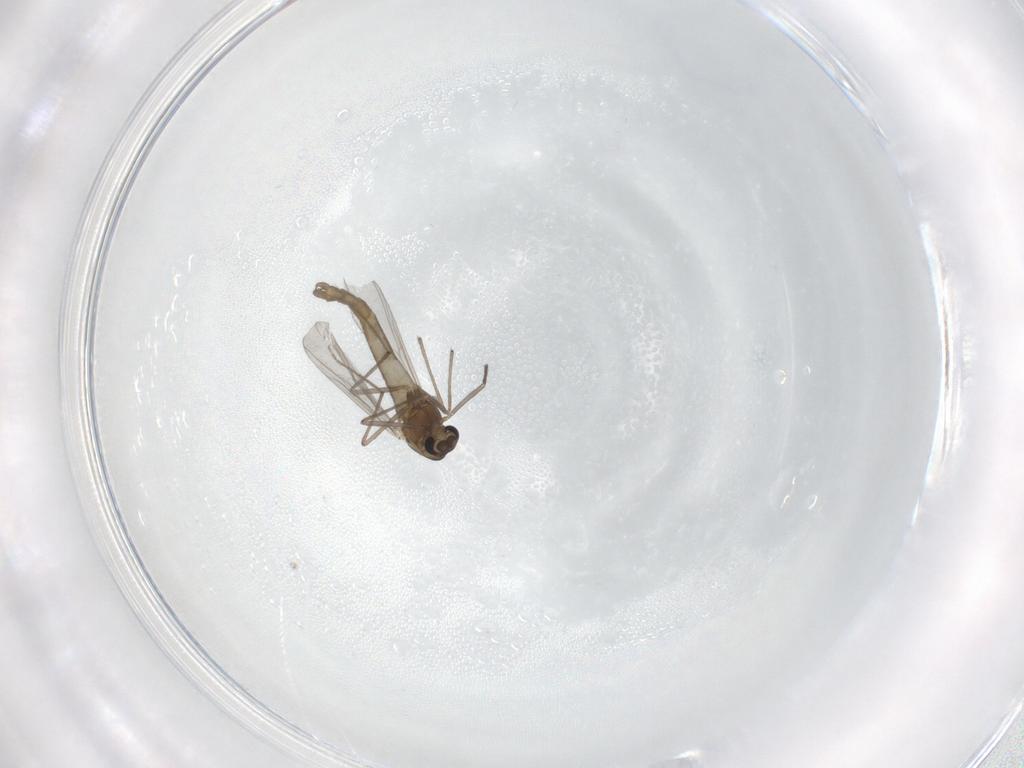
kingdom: Animalia
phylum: Arthropoda
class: Insecta
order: Diptera
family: Chironomidae
